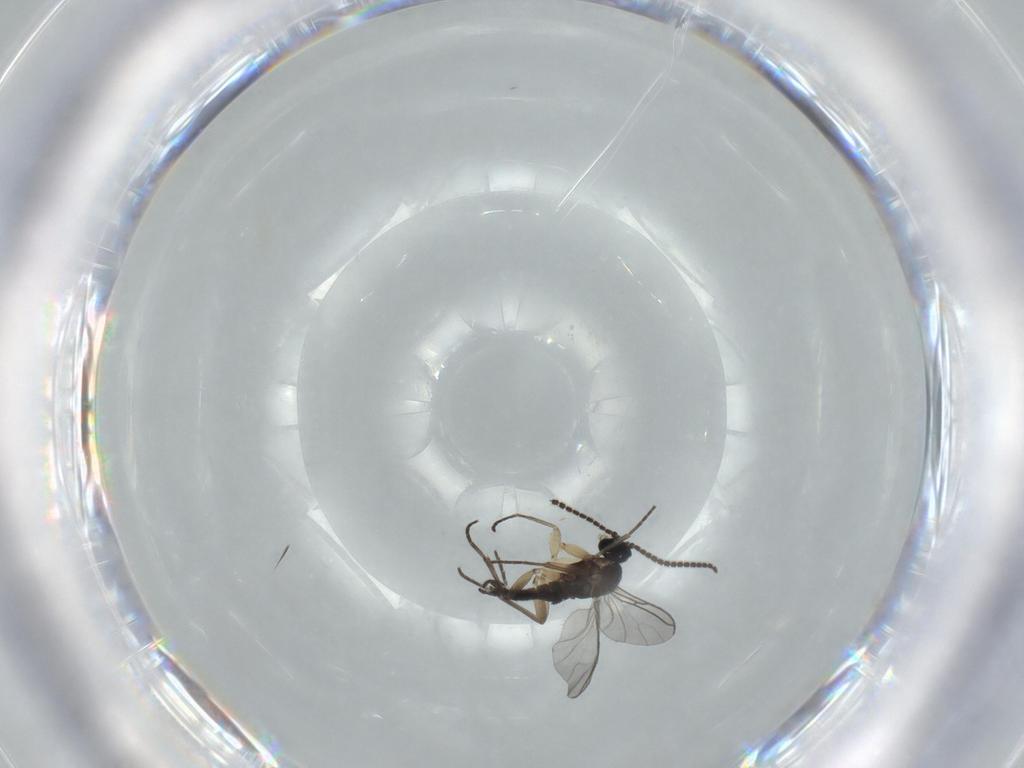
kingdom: Animalia
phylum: Arthropoda
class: Insecta
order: Diptera
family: Sciaridae
